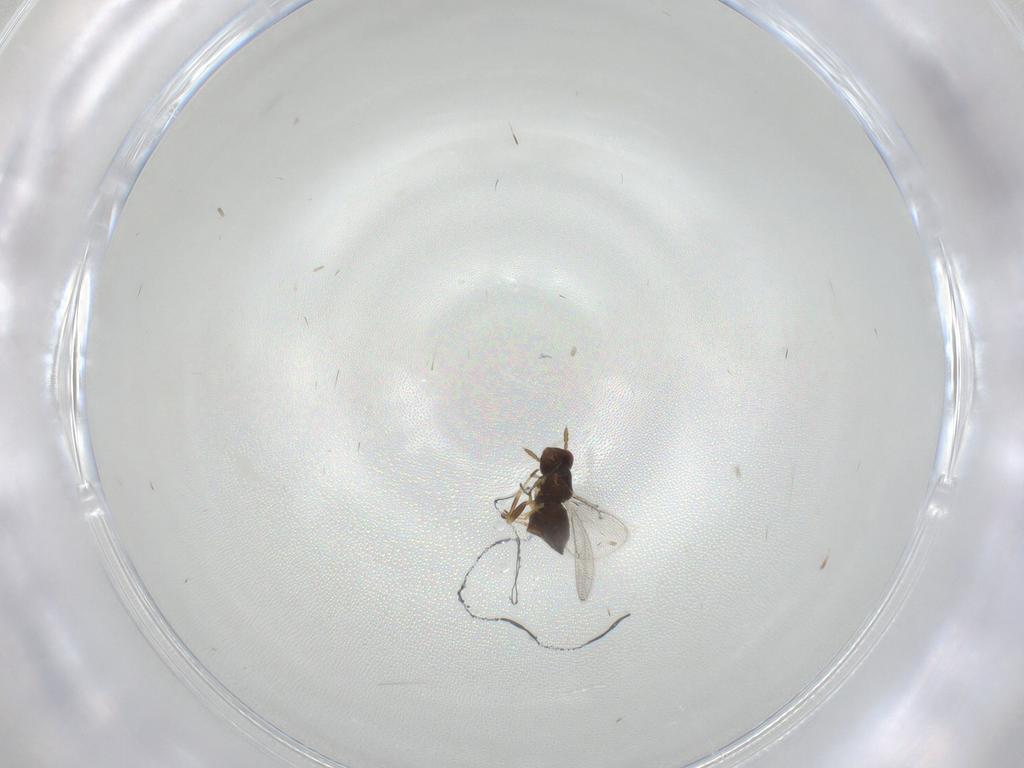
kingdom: Animalia
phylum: Arthropoda
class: Insecta
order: Hymenoptera
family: Eulophidae
